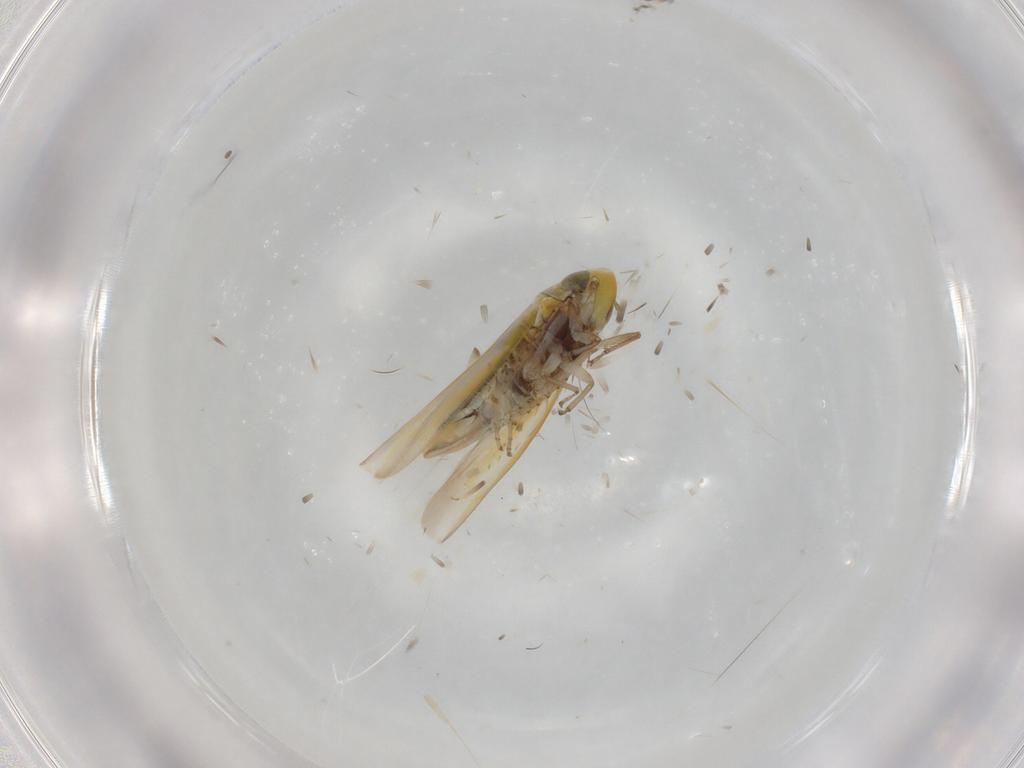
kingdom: Animalia
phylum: Arthropoda
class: Insecta
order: Hemiptera
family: Cicadellidae
